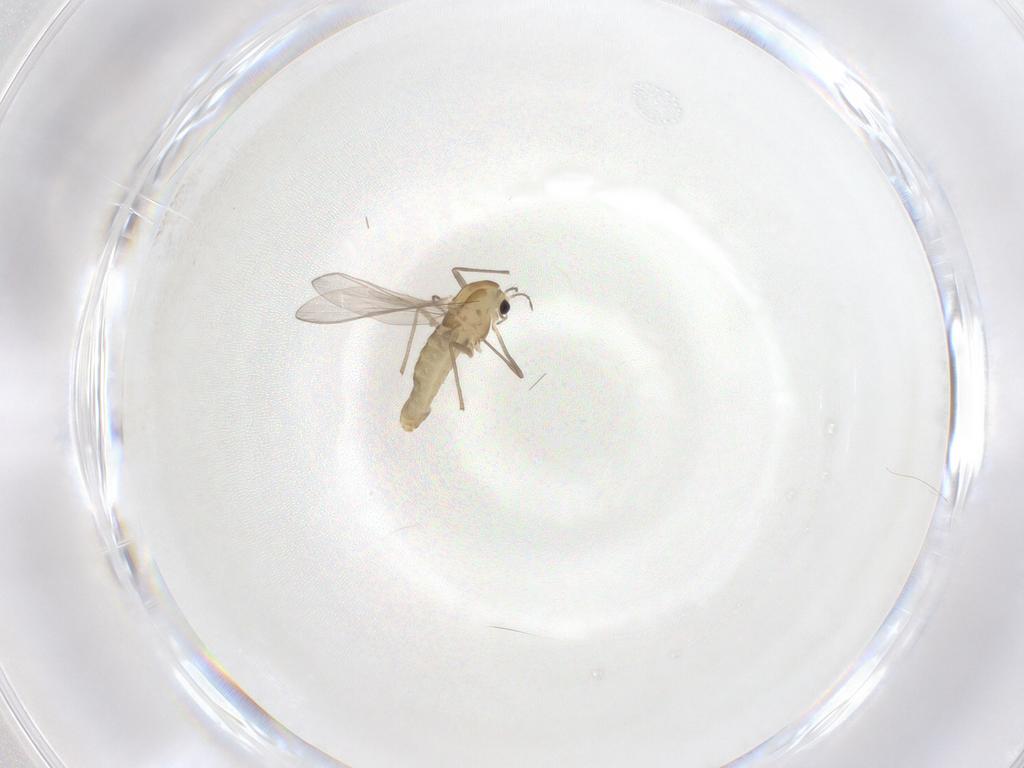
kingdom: Animalia
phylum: Arthropoda
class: Insecta
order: Diptera
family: Chironomidae
